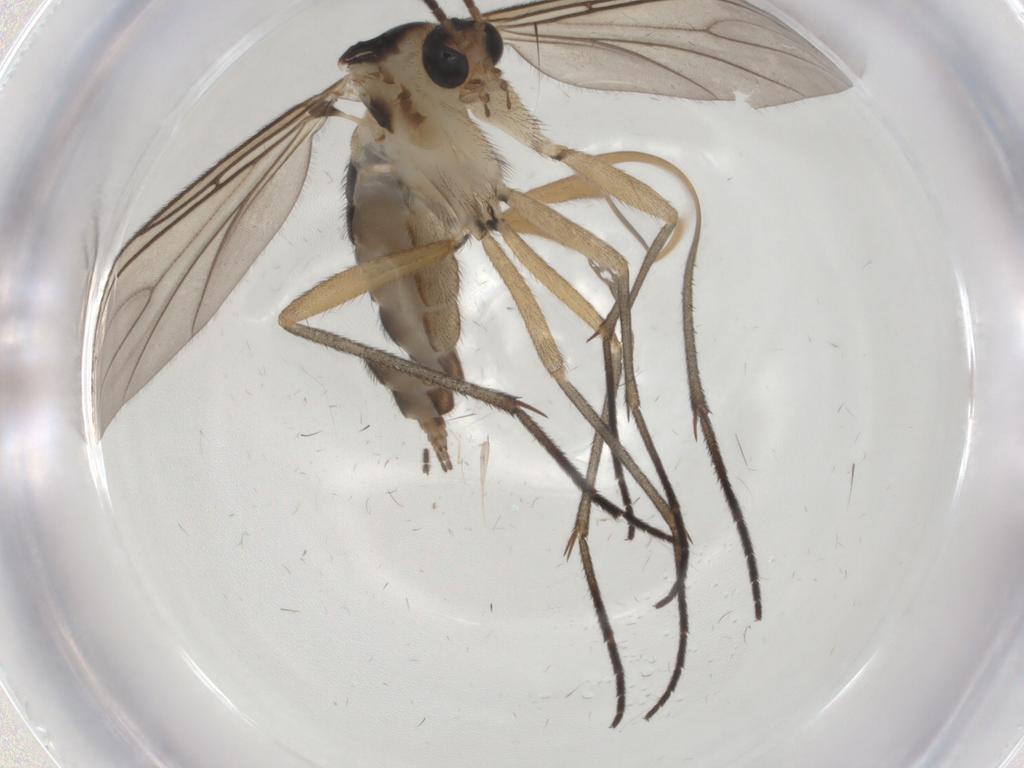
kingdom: Animalia
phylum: Arthropoda
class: Insecta
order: Diptera
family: Sciaridae
